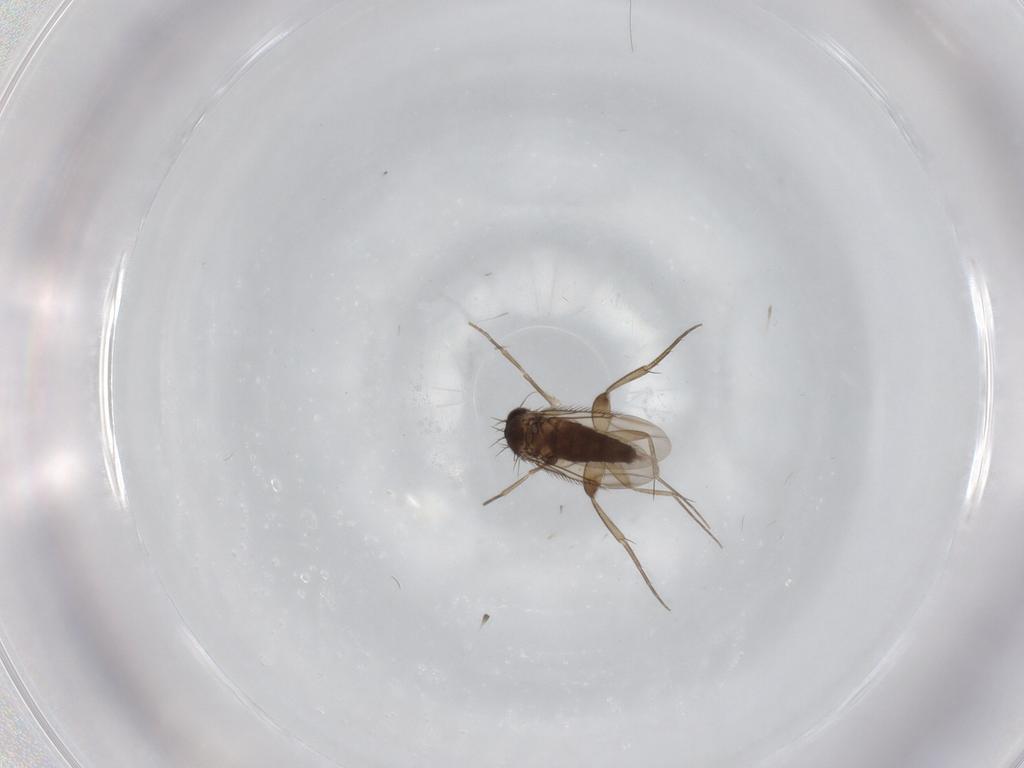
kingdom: Animalia
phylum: Arthropoda
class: Insecta
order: Diptera
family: Phoridae
